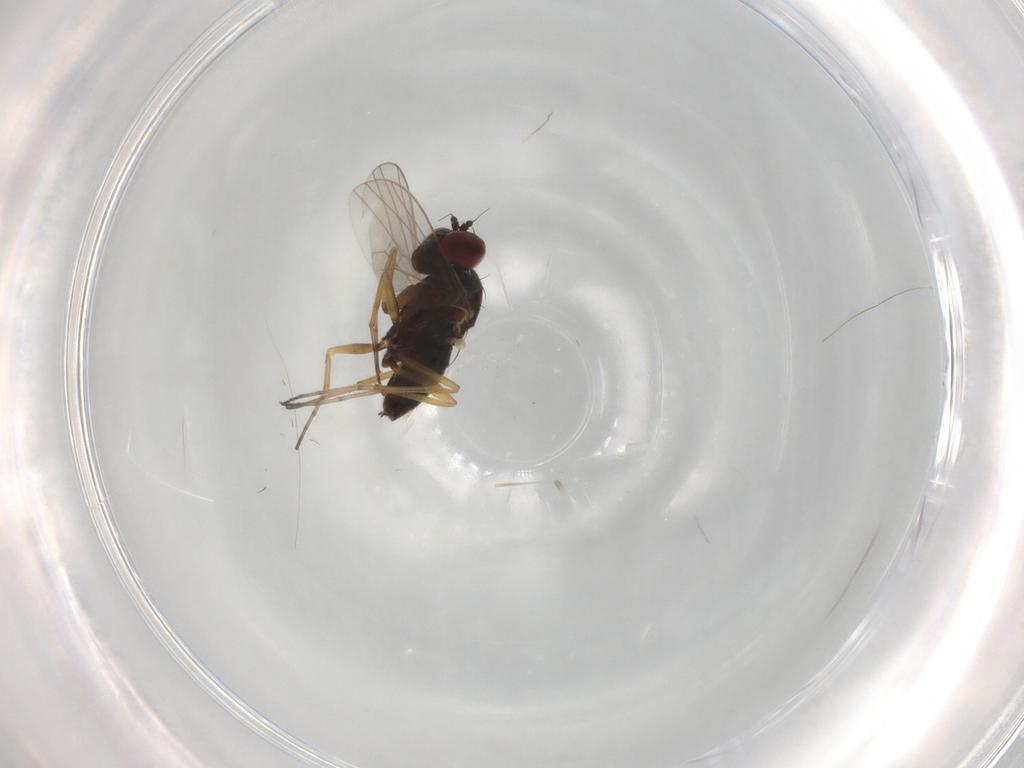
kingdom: Animalia
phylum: Arthropoda
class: Insecta
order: Diptera
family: Dolichopodidae
